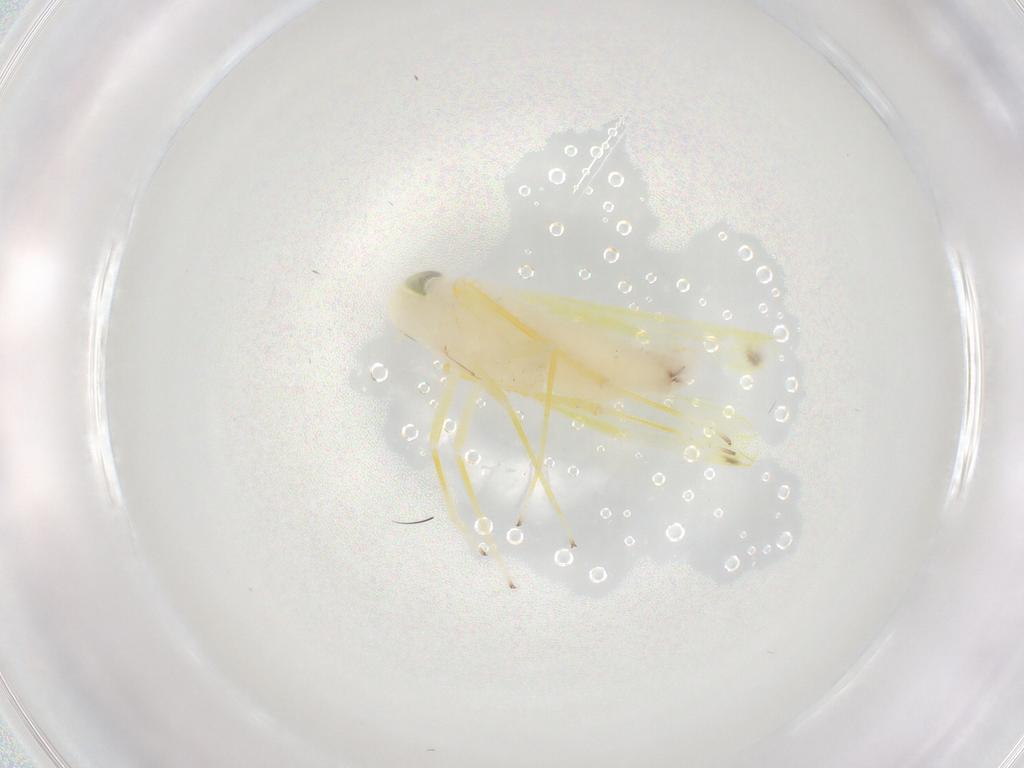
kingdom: Animalia
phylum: Arthropoda
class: Insecta
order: Hemiptera
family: Cicadellidae
